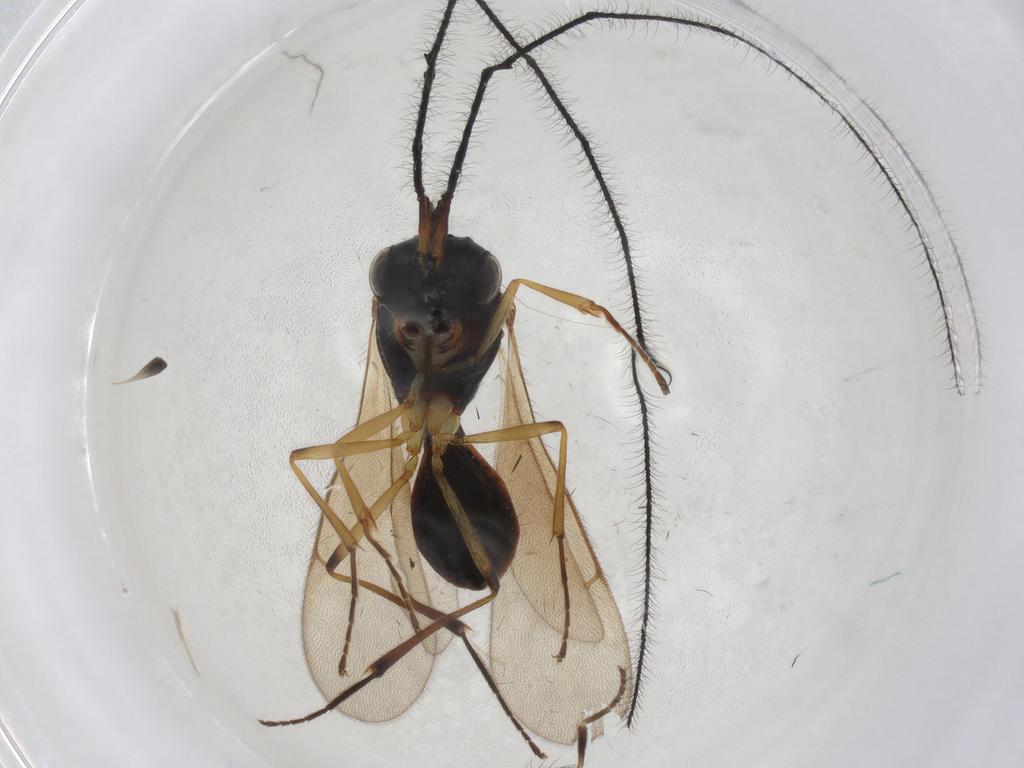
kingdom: Animalia
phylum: Arthropoda
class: Insecta
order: Hymenoptera
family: Scelionidae
